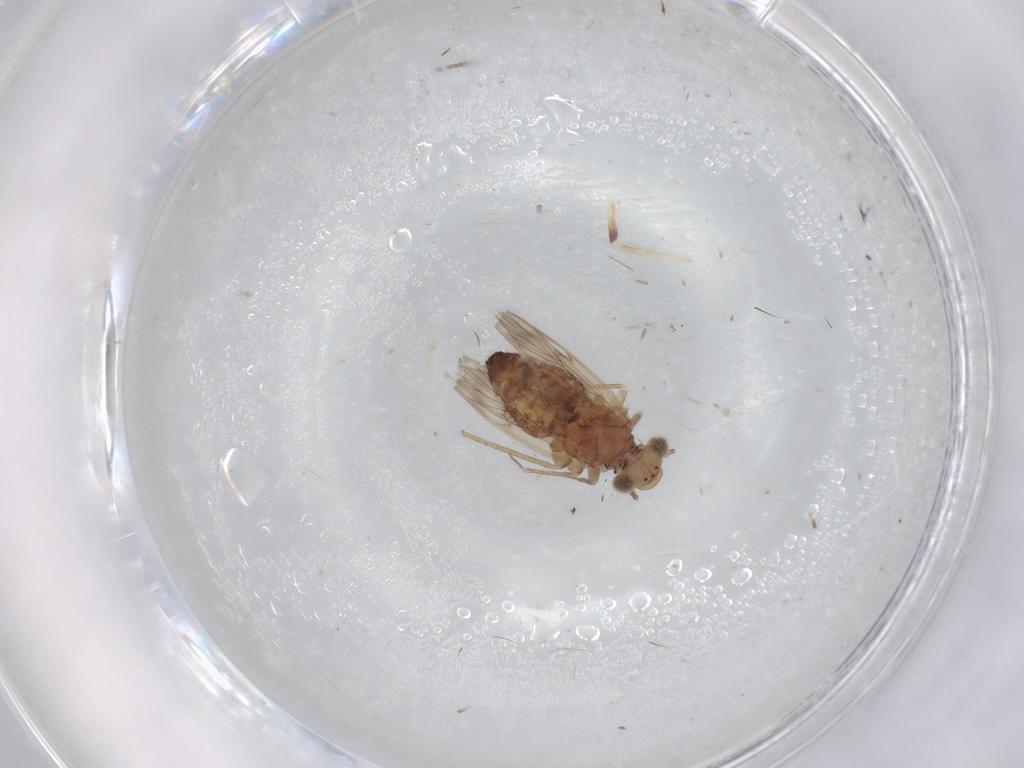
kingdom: Animalia
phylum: Arthropoda
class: Insecta
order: Psocodea
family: Lepidopsocidae
